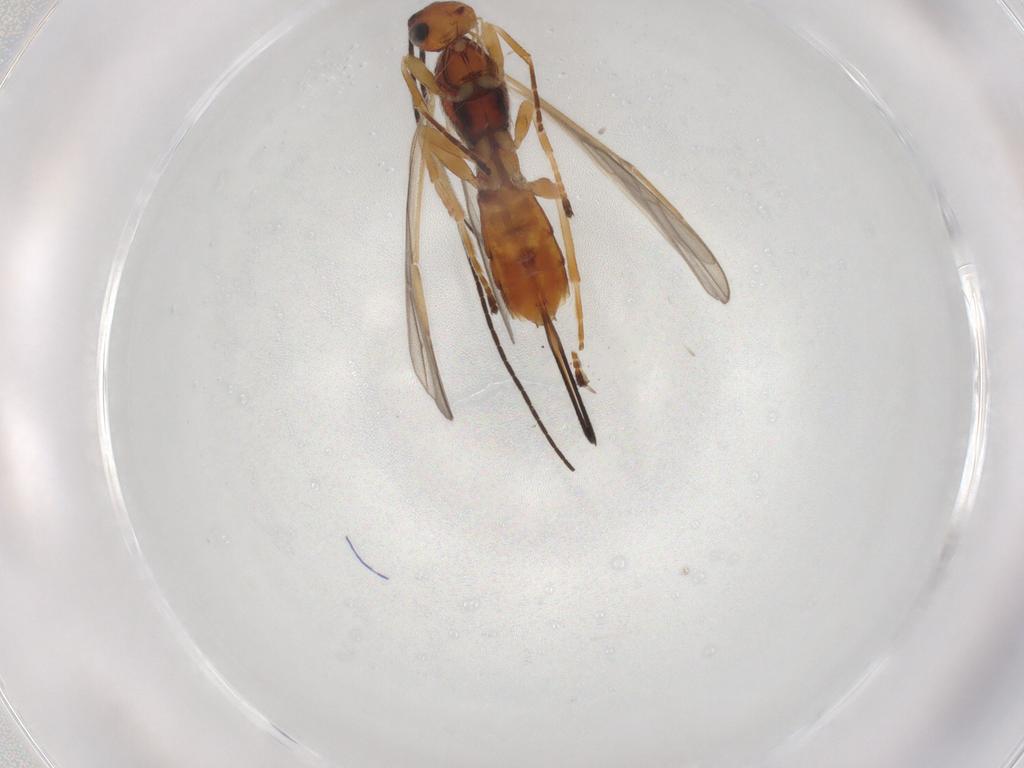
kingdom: Animalia
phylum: Arthropoda
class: Insecta
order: Hymenoptera
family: Braconidae
